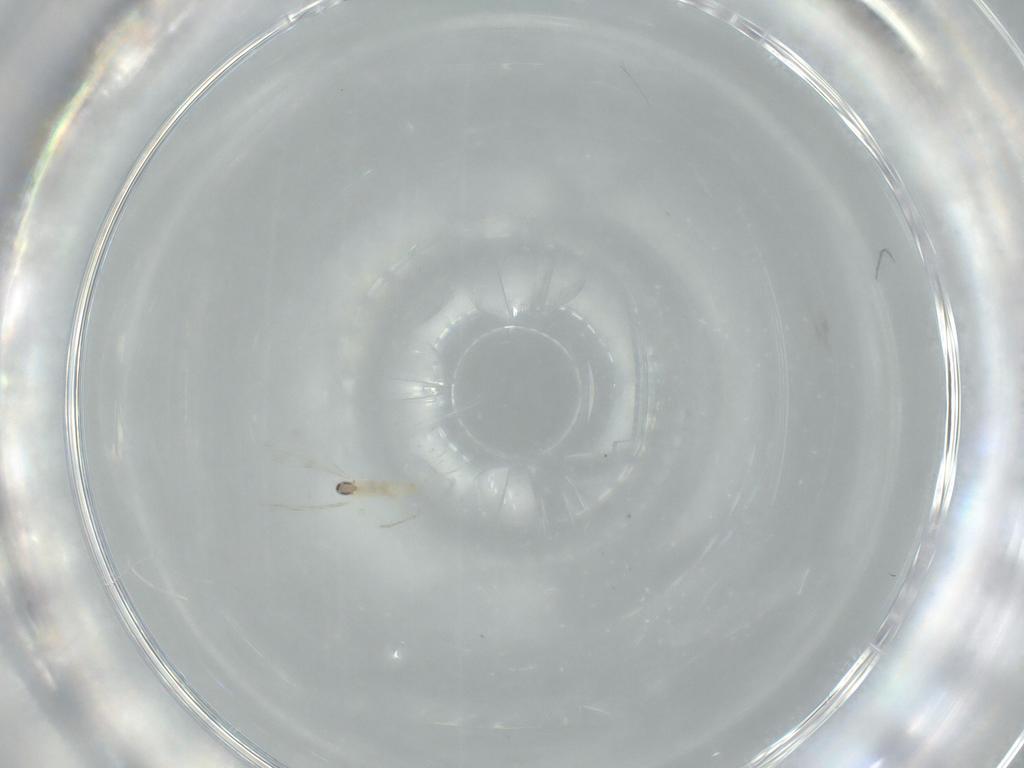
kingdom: Animalia
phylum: Arthropoda
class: Insecta
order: Diptera
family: Cecidomyiidae
